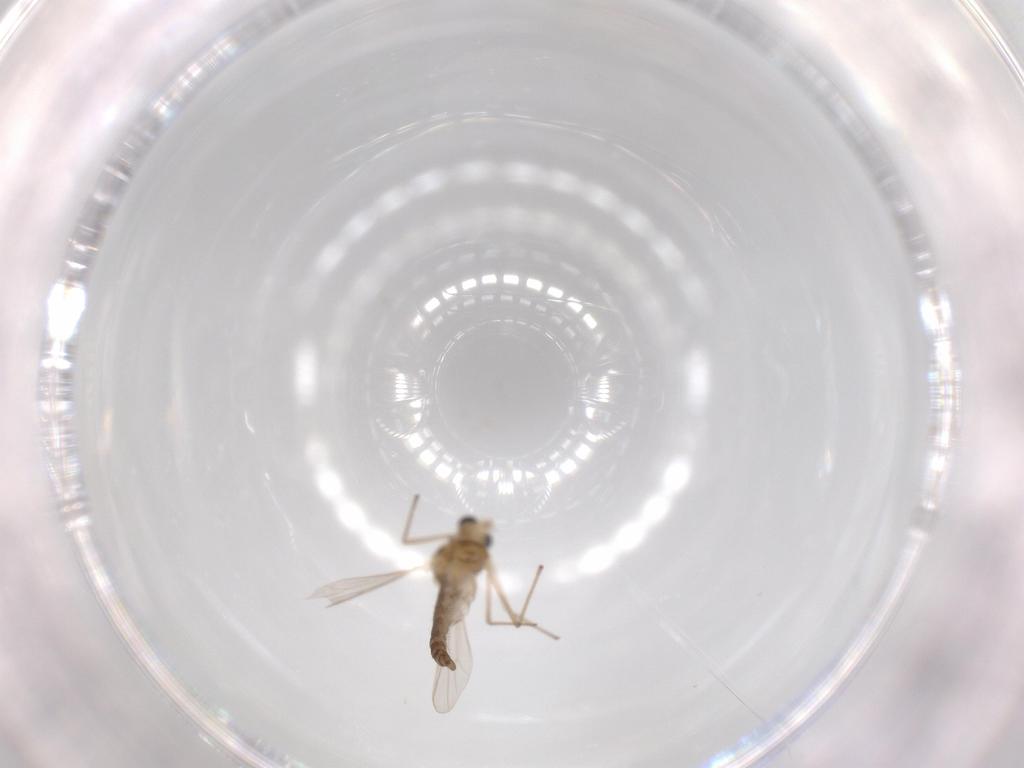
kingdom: Animalia
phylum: Arthropoda
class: Insecta
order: Diptera
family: Chironomidae
